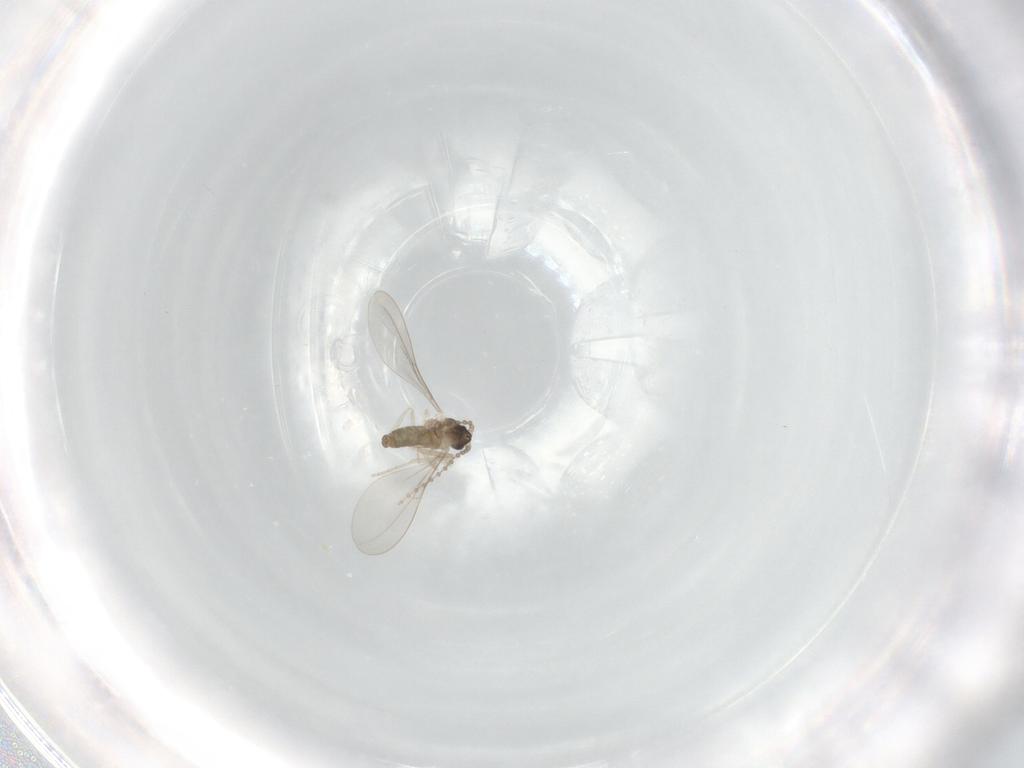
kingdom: Animalia
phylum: Arthropoda
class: Insecta
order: Diptera
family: Cecidomyiidae
